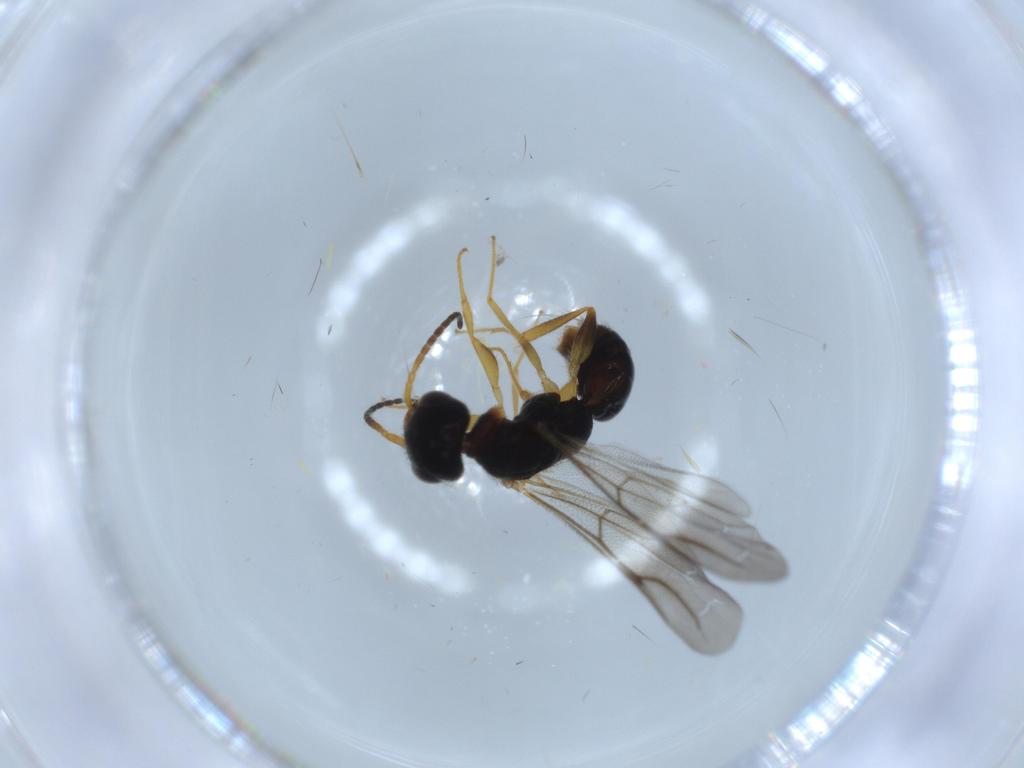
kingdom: Animalia
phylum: Arthropoda
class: Insecta
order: Hymenoptera
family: Bethylidae
